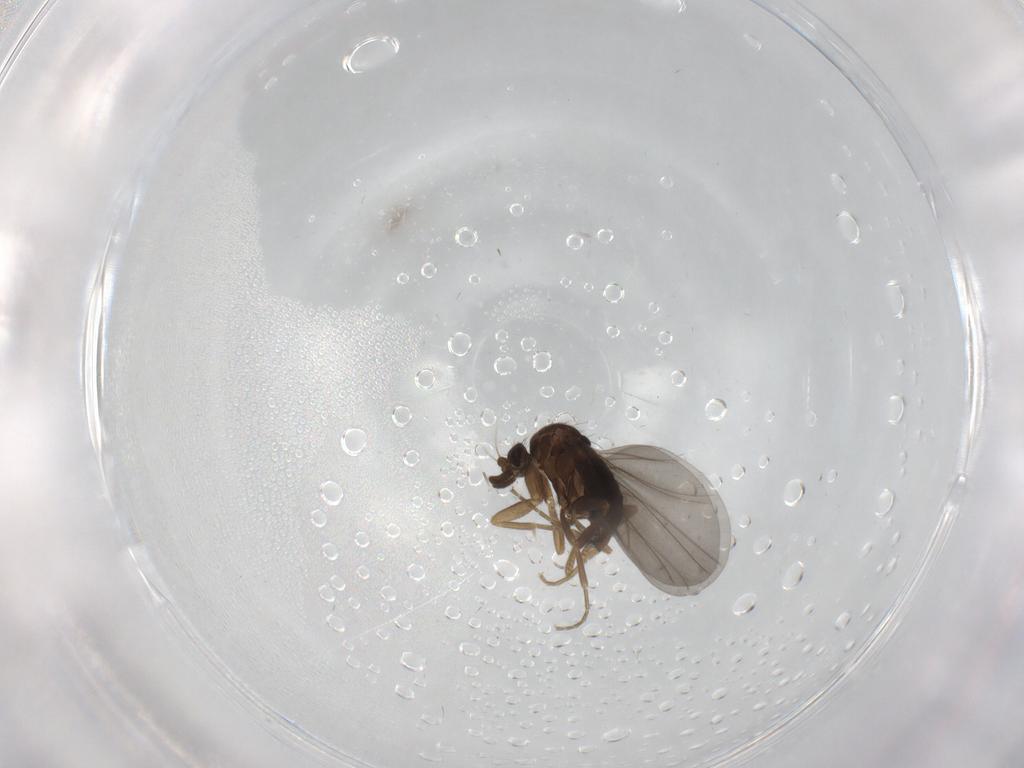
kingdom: Animalia
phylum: Arthropoda
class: Insecta
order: Diptera
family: Phoridae
